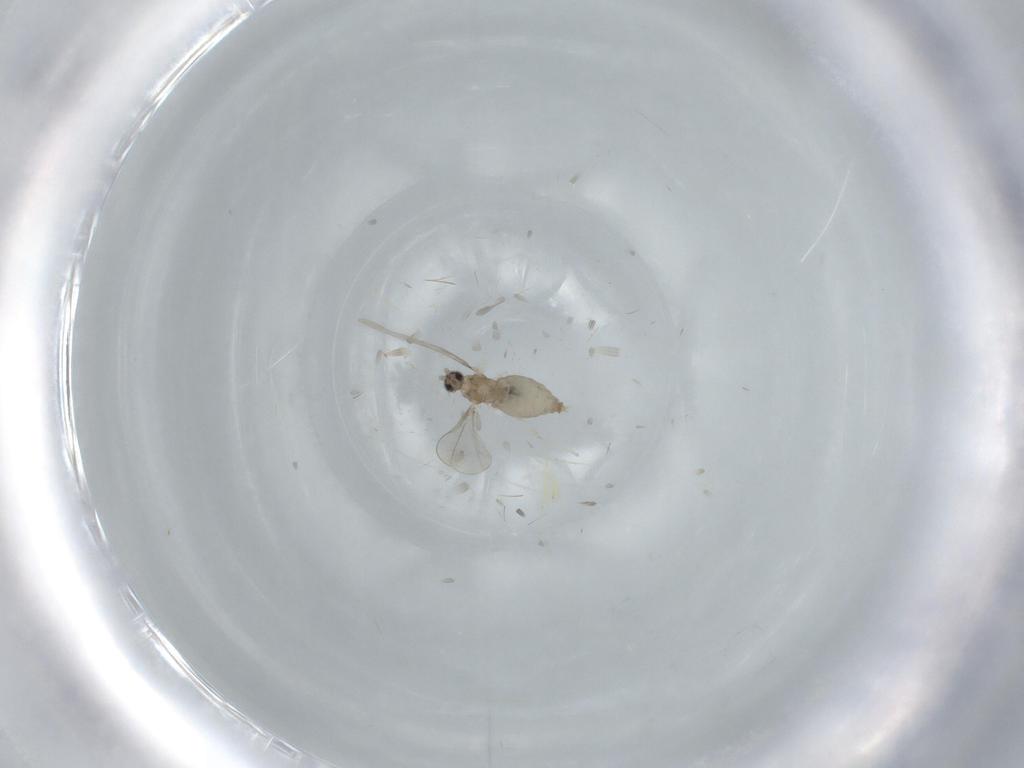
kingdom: Animalia
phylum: Arthropoda
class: Insecta
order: Diptera
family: Cecidomyiidae
